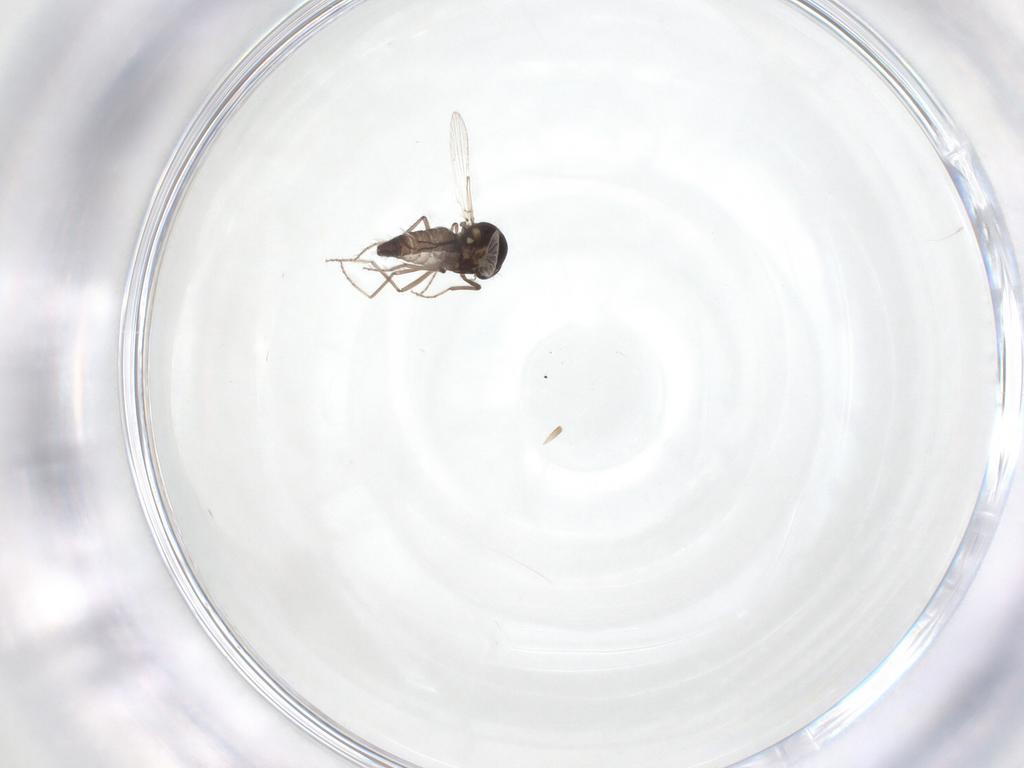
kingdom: Animalia
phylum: Arthropoda
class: Insecta
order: Diptera
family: Ceratopogonidae
